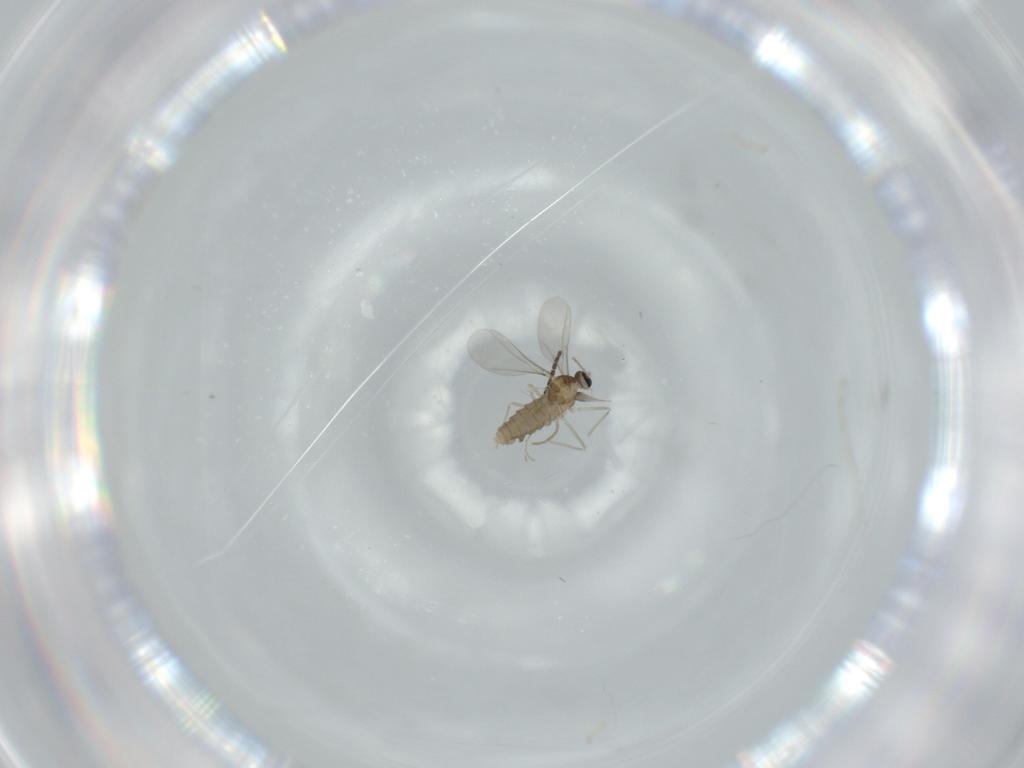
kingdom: Animalia
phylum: Arthropoda
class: Insecta
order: Diptera
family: Cecidomyiidae
